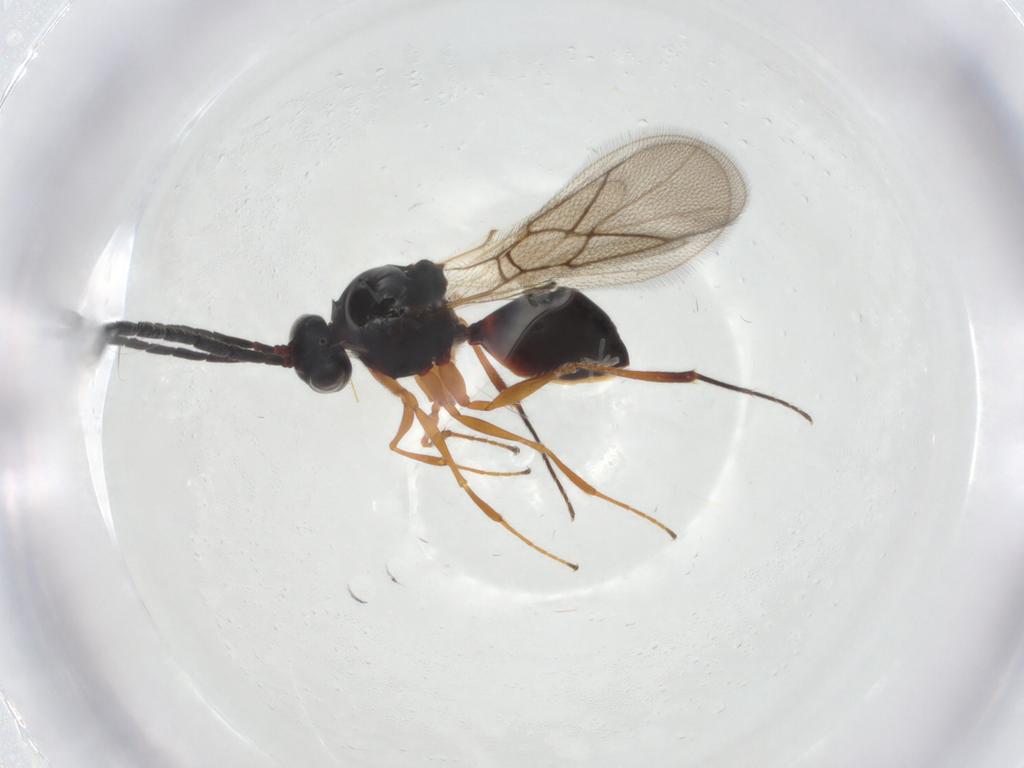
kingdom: Animalia
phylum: Arthropoda
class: Insecta
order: Hymenoptera
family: Figitidae
